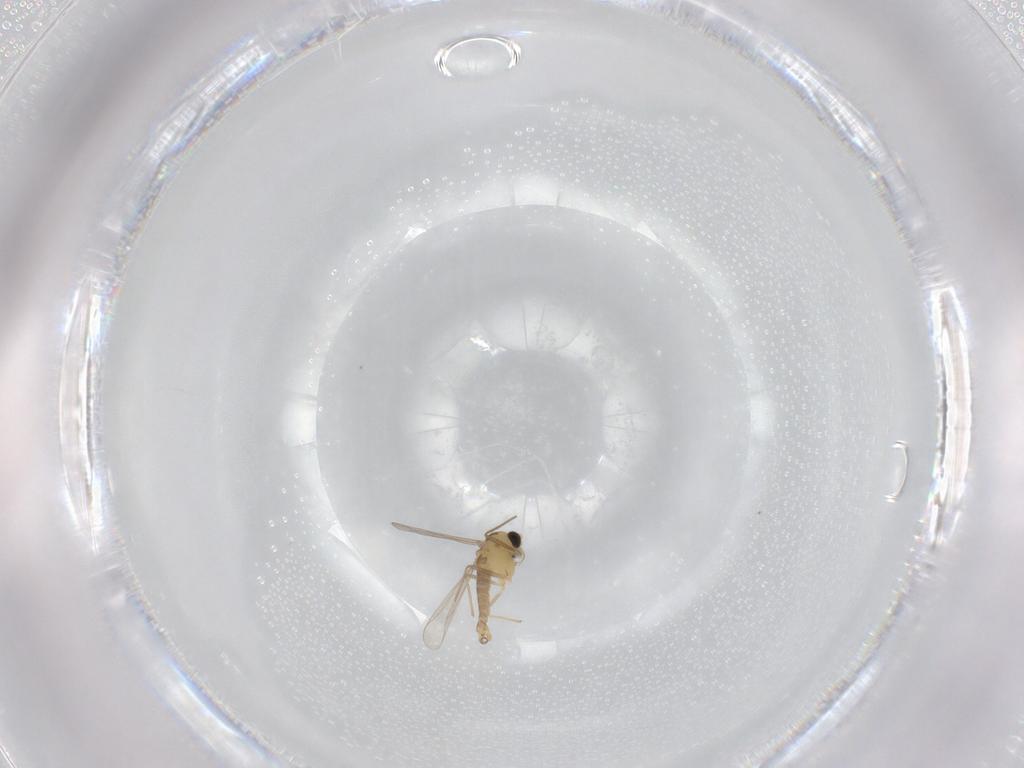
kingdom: Animalia
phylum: Arthropoda
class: Insecta
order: Diptera
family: Chironomidae
